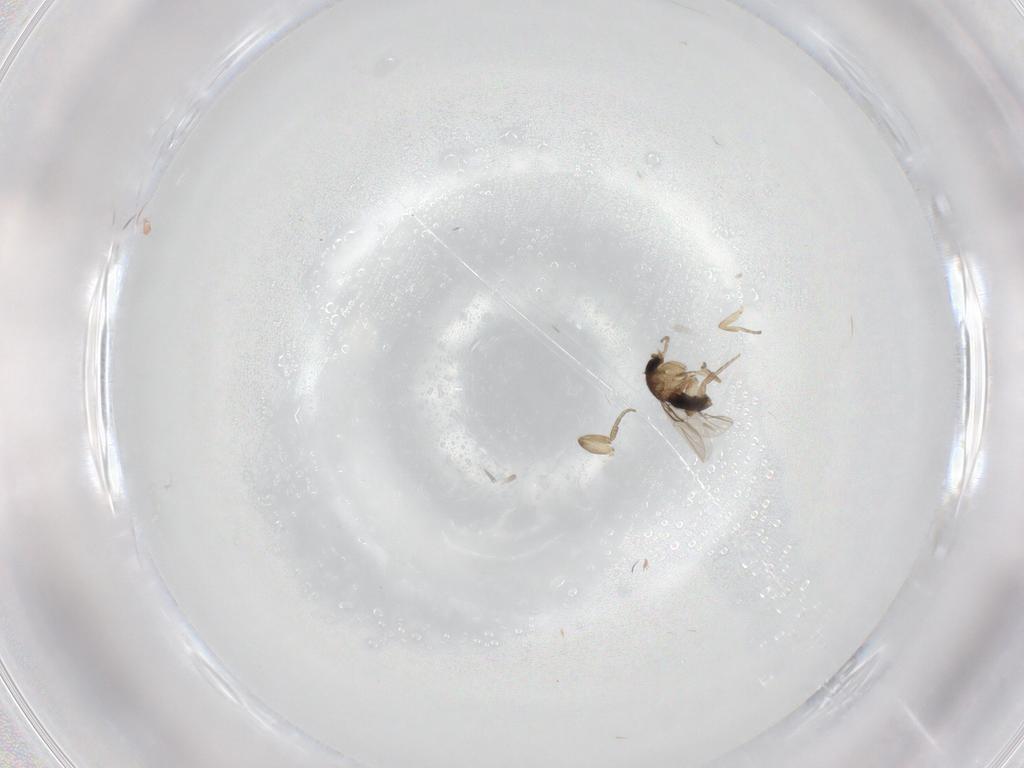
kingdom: Animalia
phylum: Arthropoda
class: Insecta
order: Diptera
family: Phoridae
